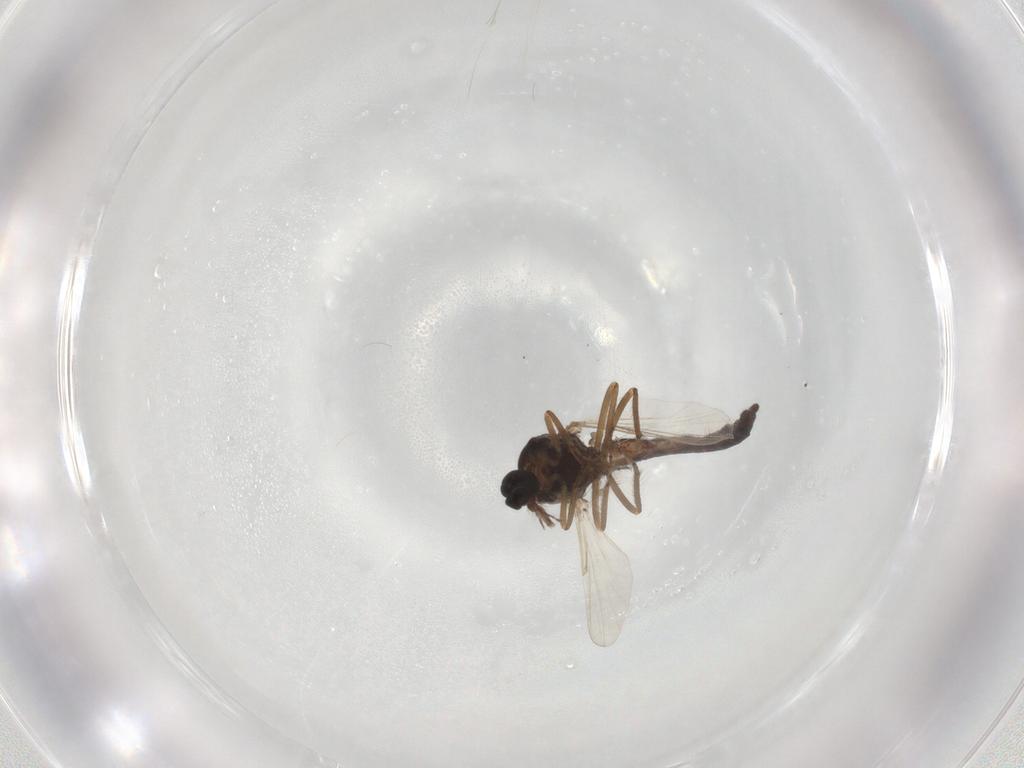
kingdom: Animalia
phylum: Arthropoda
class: Insecta
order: Diptera
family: Ceratopogonidae
